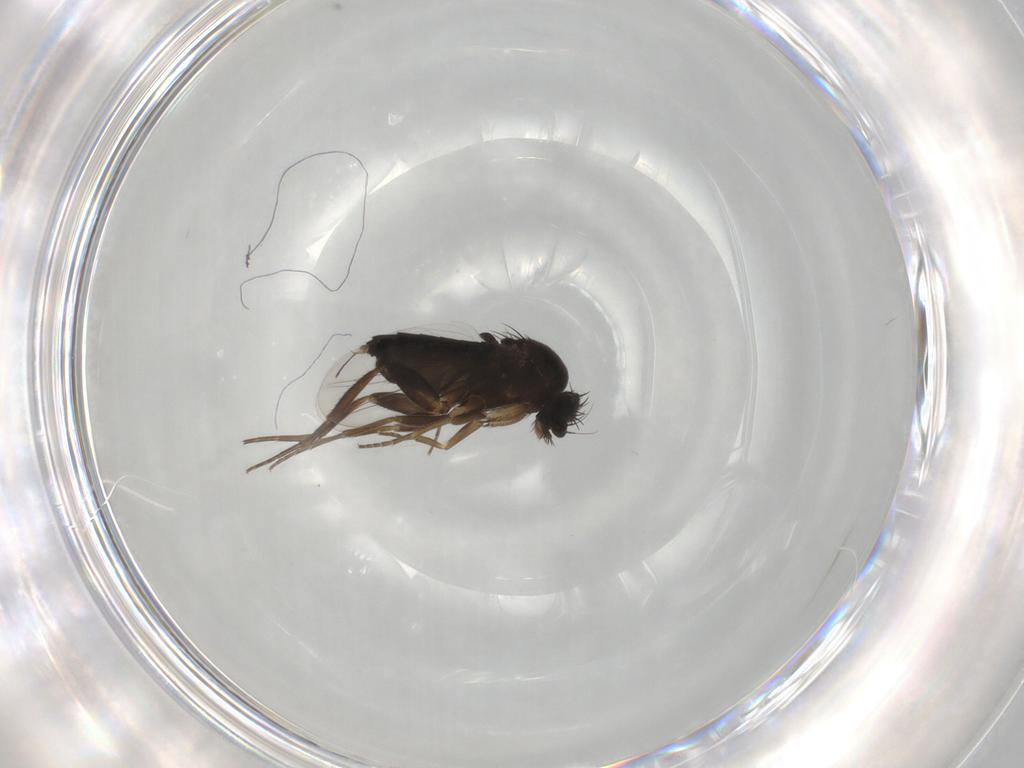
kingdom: Animalia
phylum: Arthropoda
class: Insecta
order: Diptera
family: Phoridae
